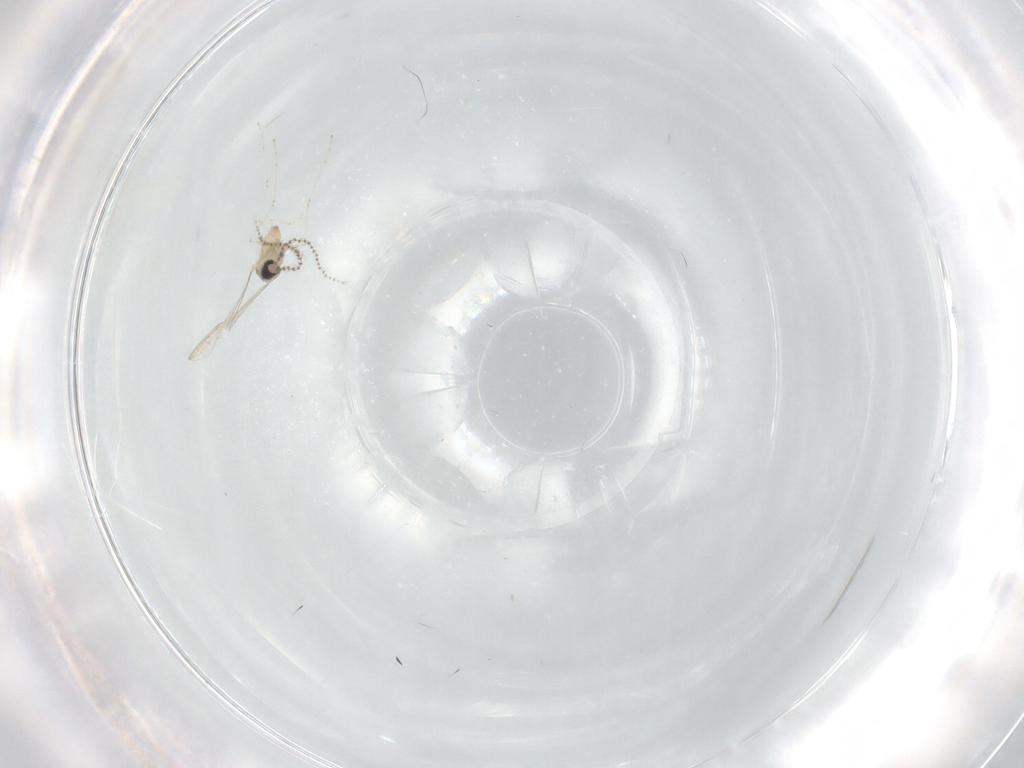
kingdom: Animalia
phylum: Arthropoda
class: Insecta
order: Diptera
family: Cecidomyiidae
